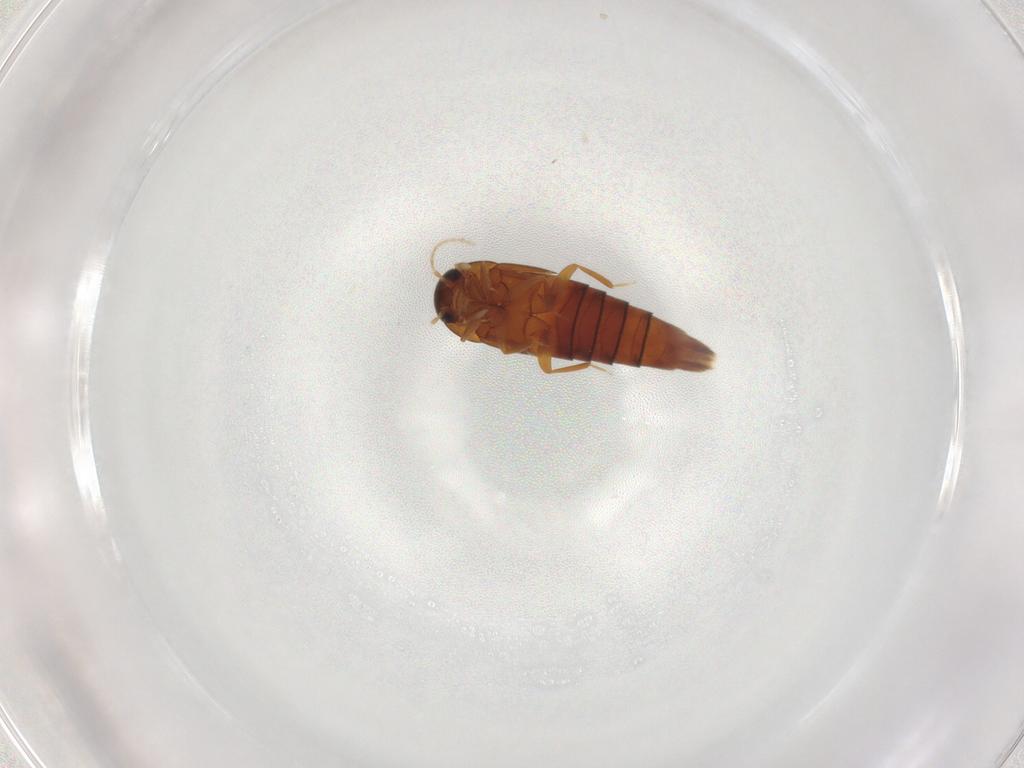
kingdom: Animalia
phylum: Arthropoda
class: Insecta
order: Coleoptera
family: Staphylinidae
